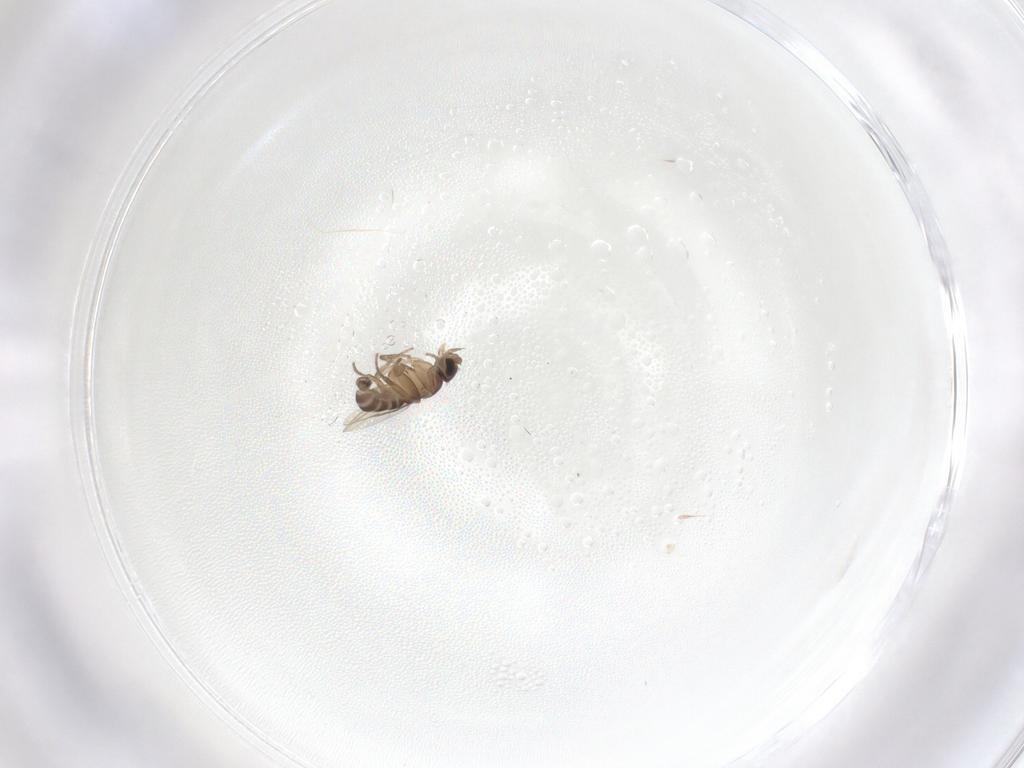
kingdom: Animalia
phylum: Arthropoda
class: Insecta
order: Diptera
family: Phoridae
